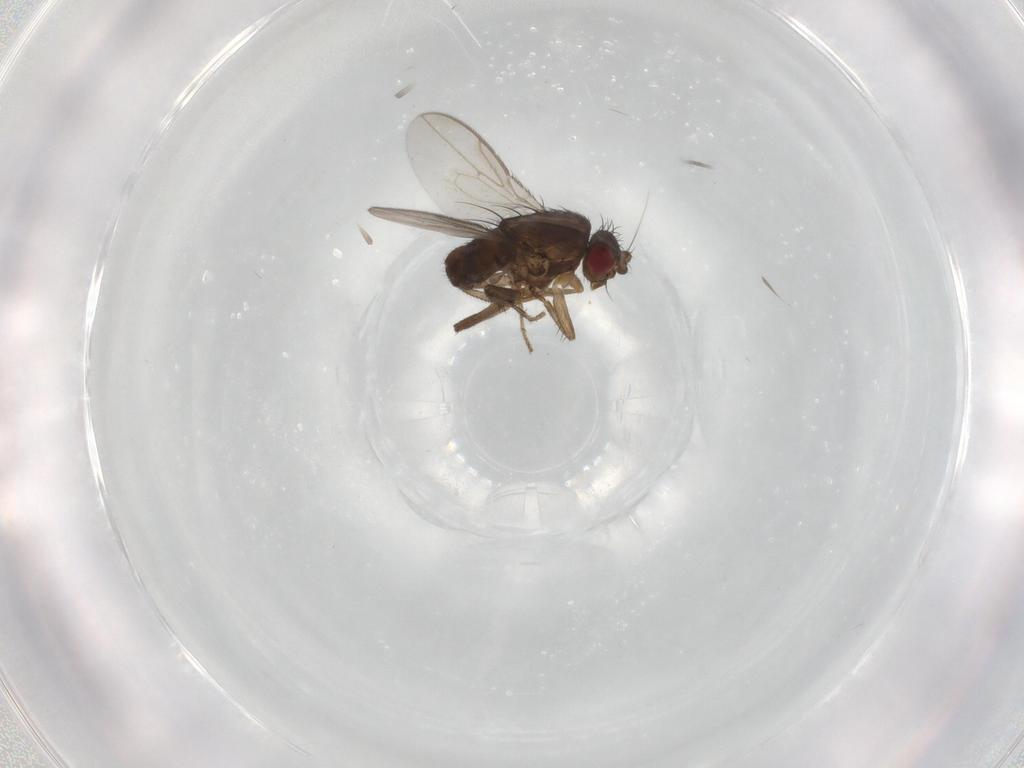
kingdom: Animalia
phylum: Arthropoda
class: Insecta
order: Diptera
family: Sphaeroceridae
